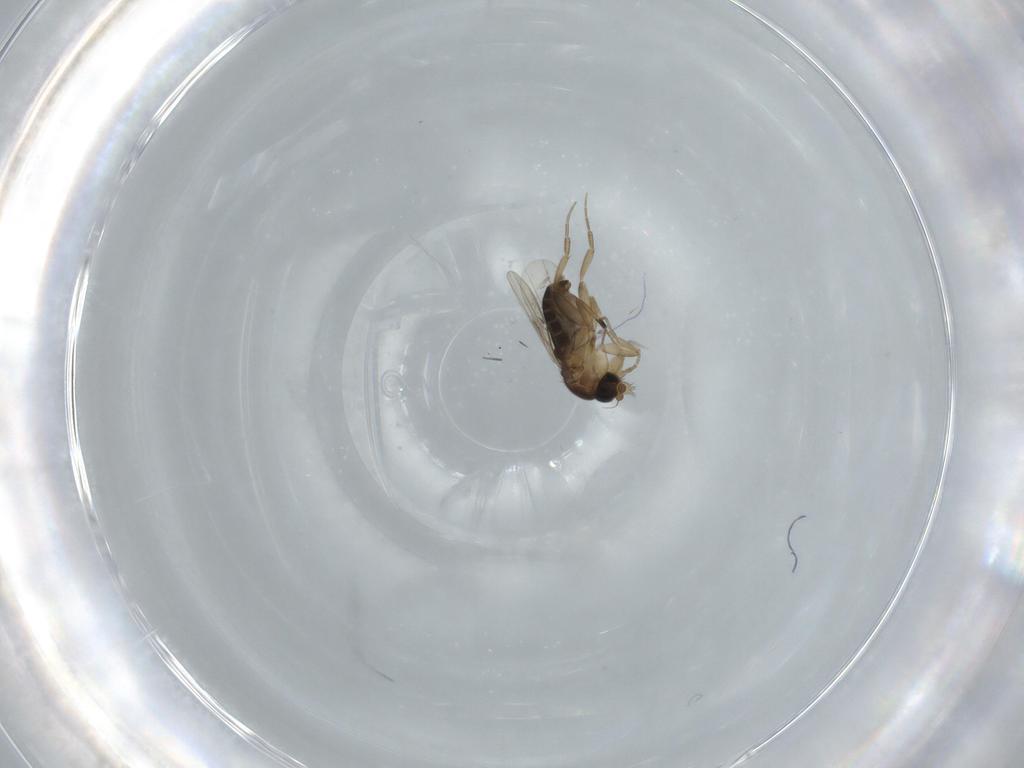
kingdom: Animalia
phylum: Arthropoda
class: Insecta
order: Diptera
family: Phoridae
